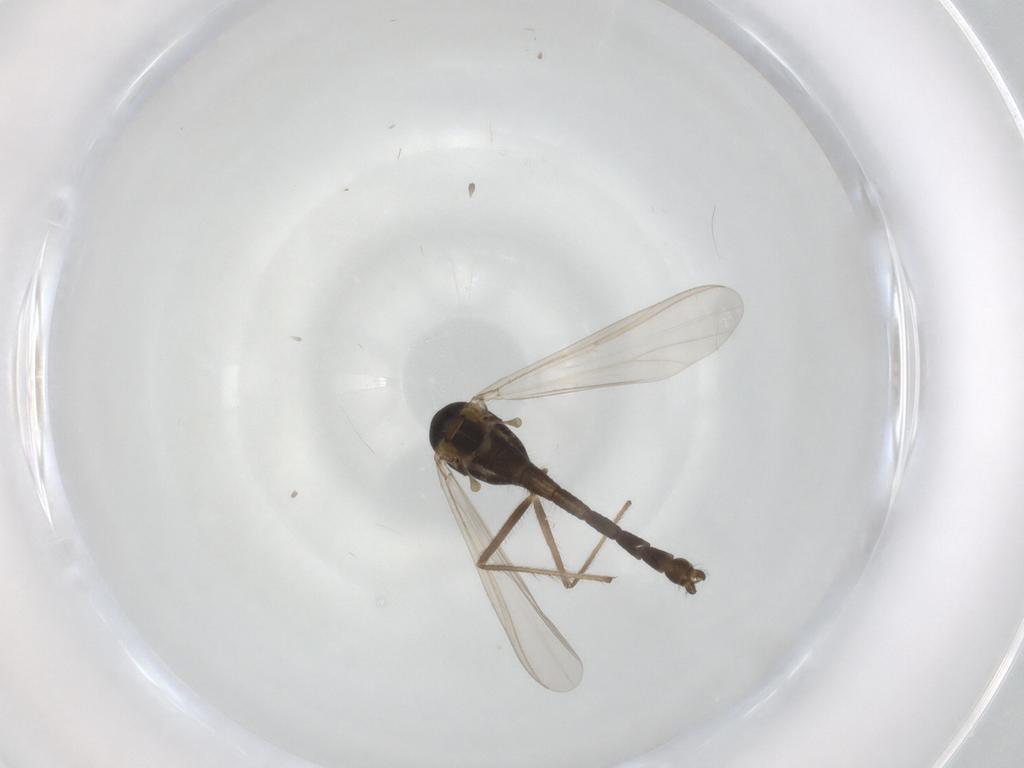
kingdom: Animalia
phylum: Arthropoda
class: Insecta
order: Diptera
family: Chironomidae
